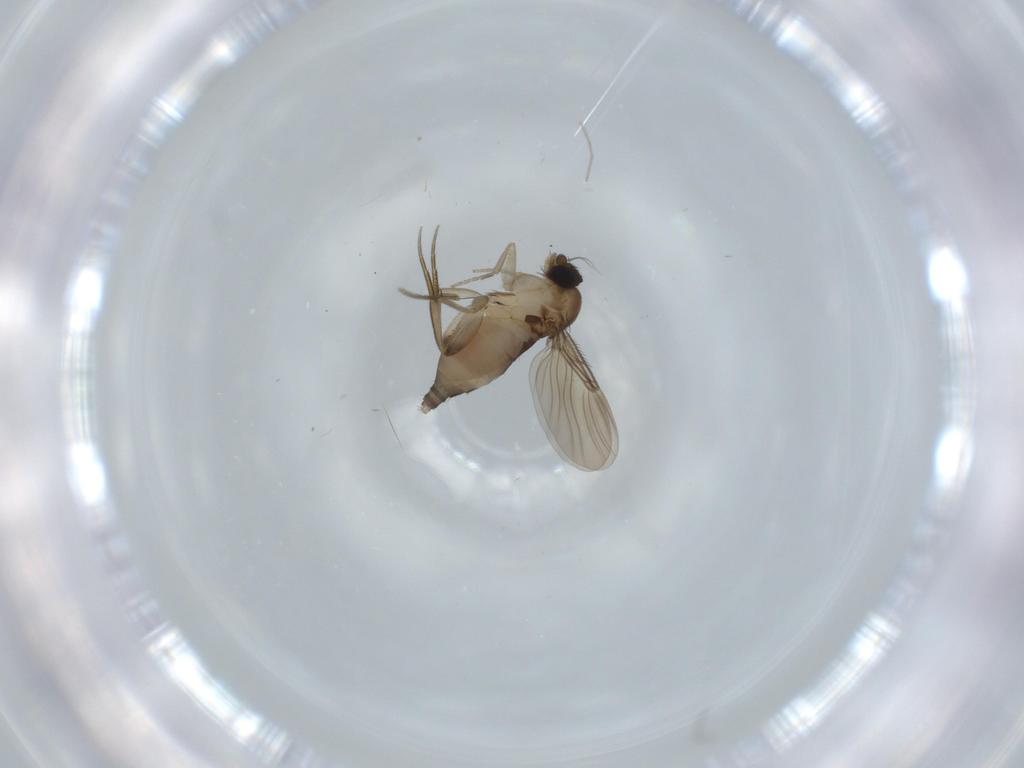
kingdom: Animalia
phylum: Arthropoda
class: Insecta
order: Diptera
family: Phoridae
